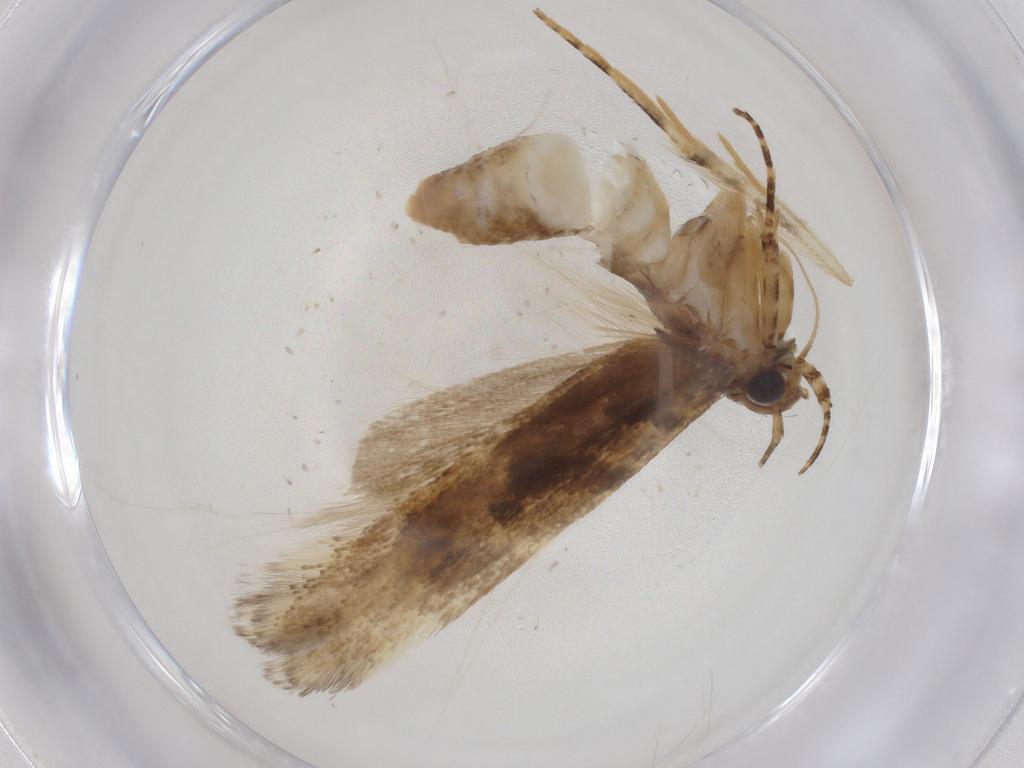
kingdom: Animalia
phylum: Arthropoda
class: Insecta
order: Lepidoptera
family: Gelechiidae
